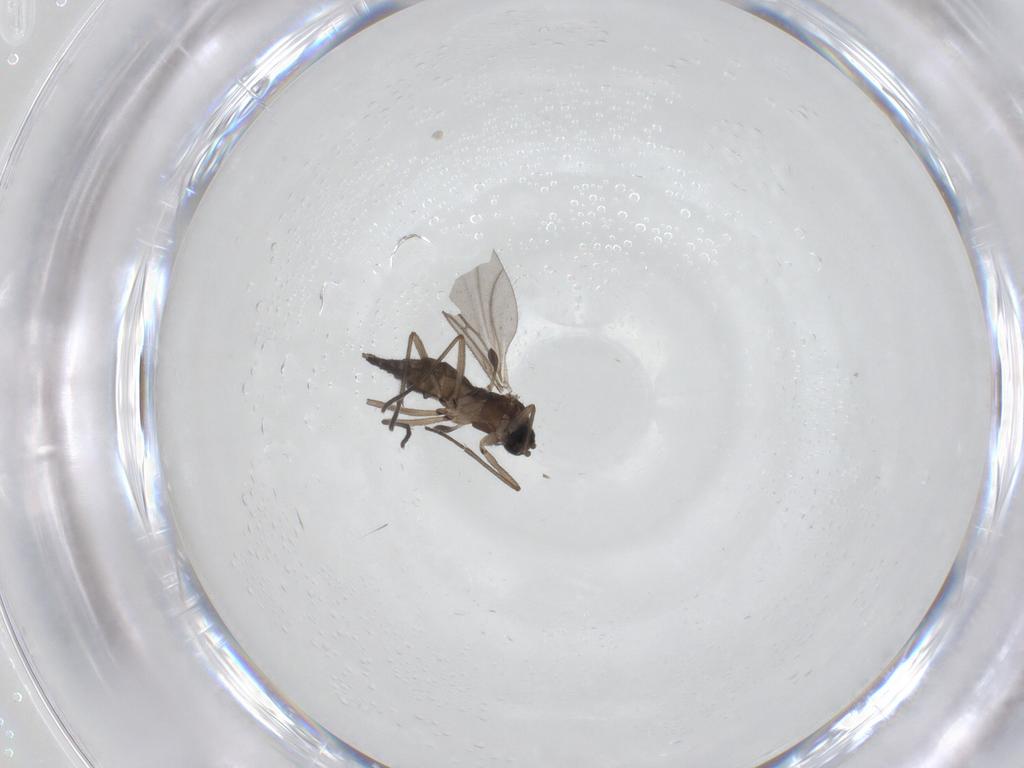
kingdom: Animalia
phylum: Arthropoda
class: Insecta
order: Diptera
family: Sciaridae
